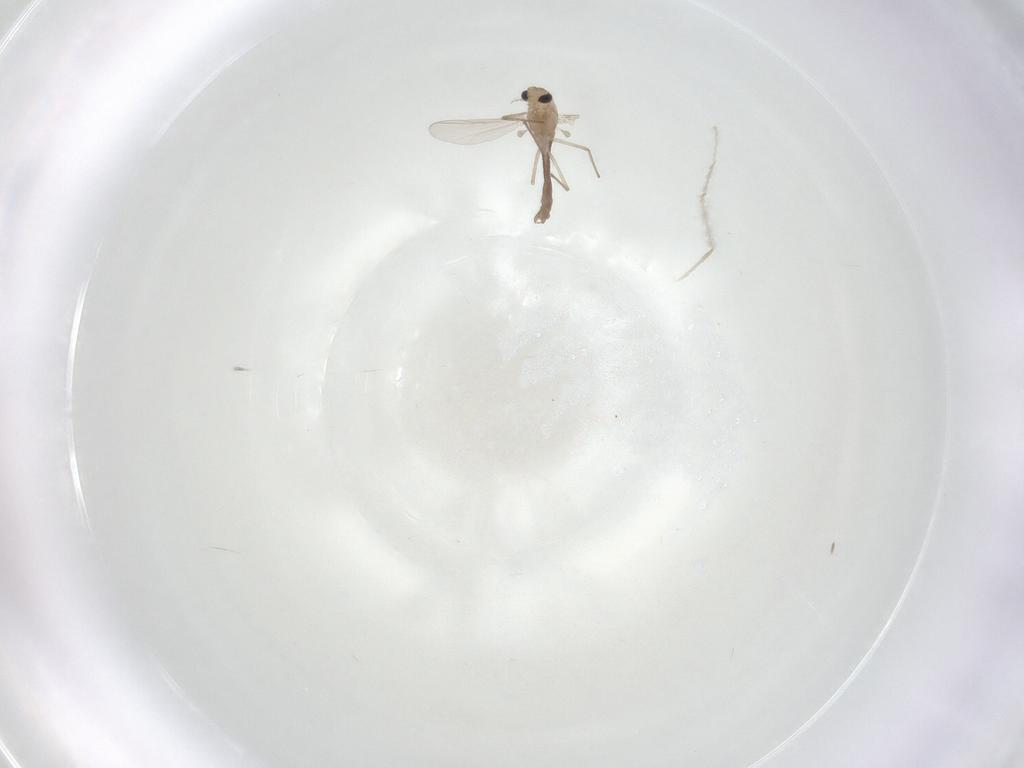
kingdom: Animalia
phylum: Arthropoda
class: Insecta
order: Diptera
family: Chironomidae
